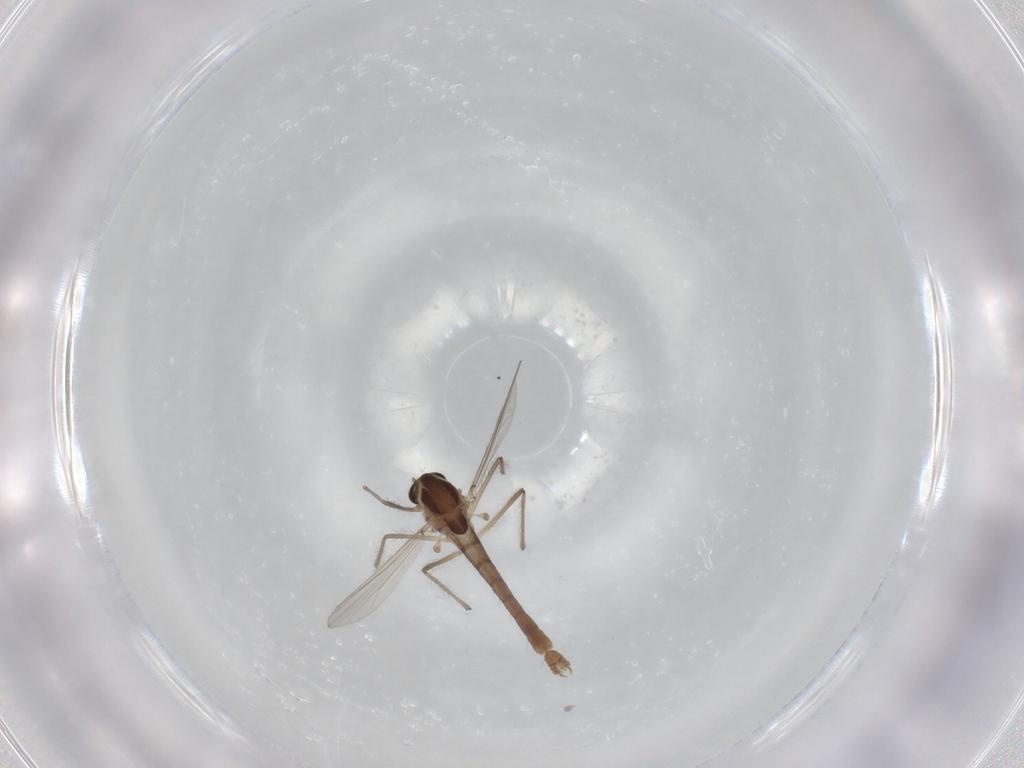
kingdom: Animalia
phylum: Arthropoda
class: Insecta
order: Diptera
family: Chironomidae
